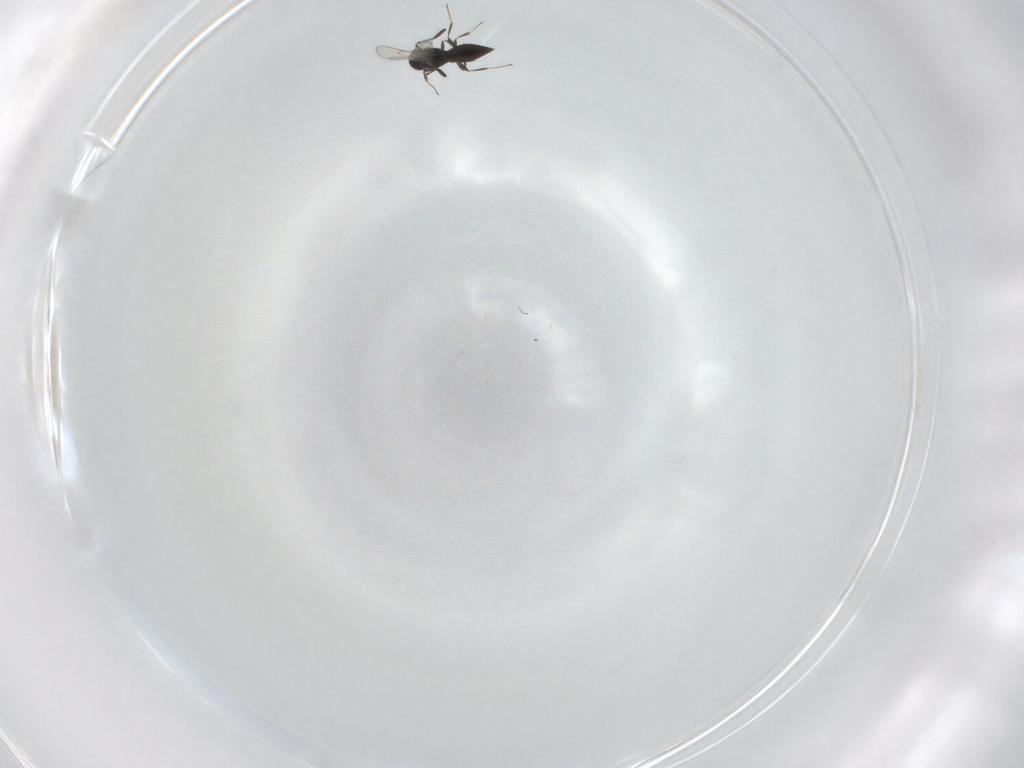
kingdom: Animalia
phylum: Arthropoda
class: Insecta
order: Hymenoptera
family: Scelionidae
